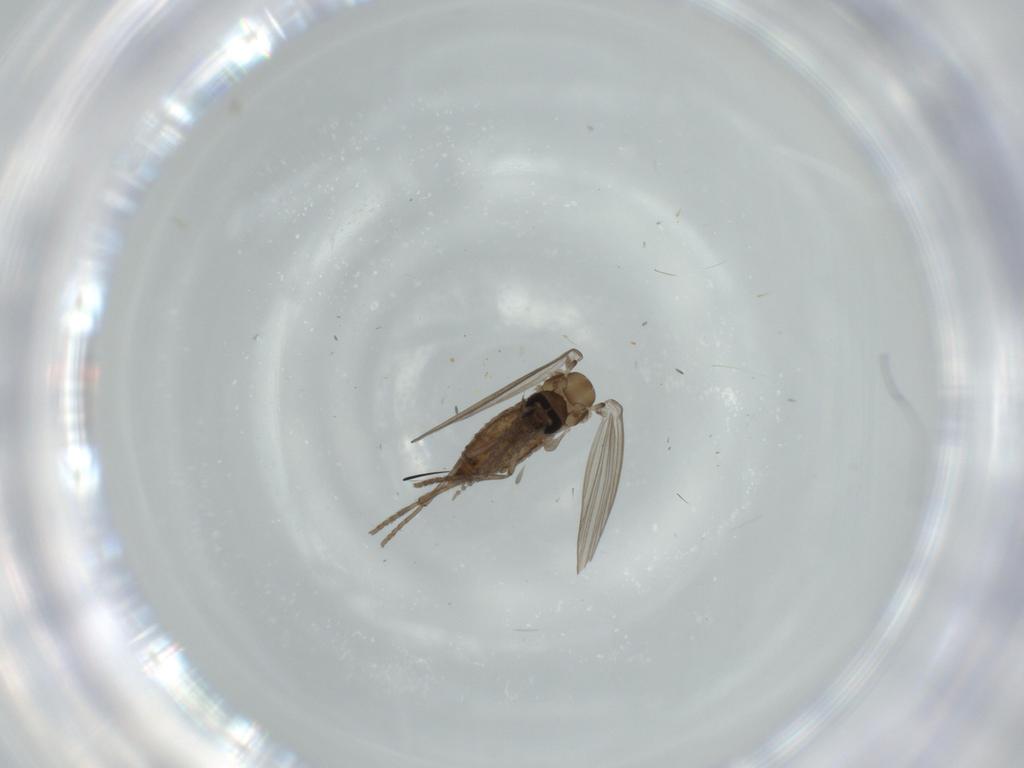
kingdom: Animalia
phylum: Arthropoda
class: Insecta
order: Diptera
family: Psychodidae
